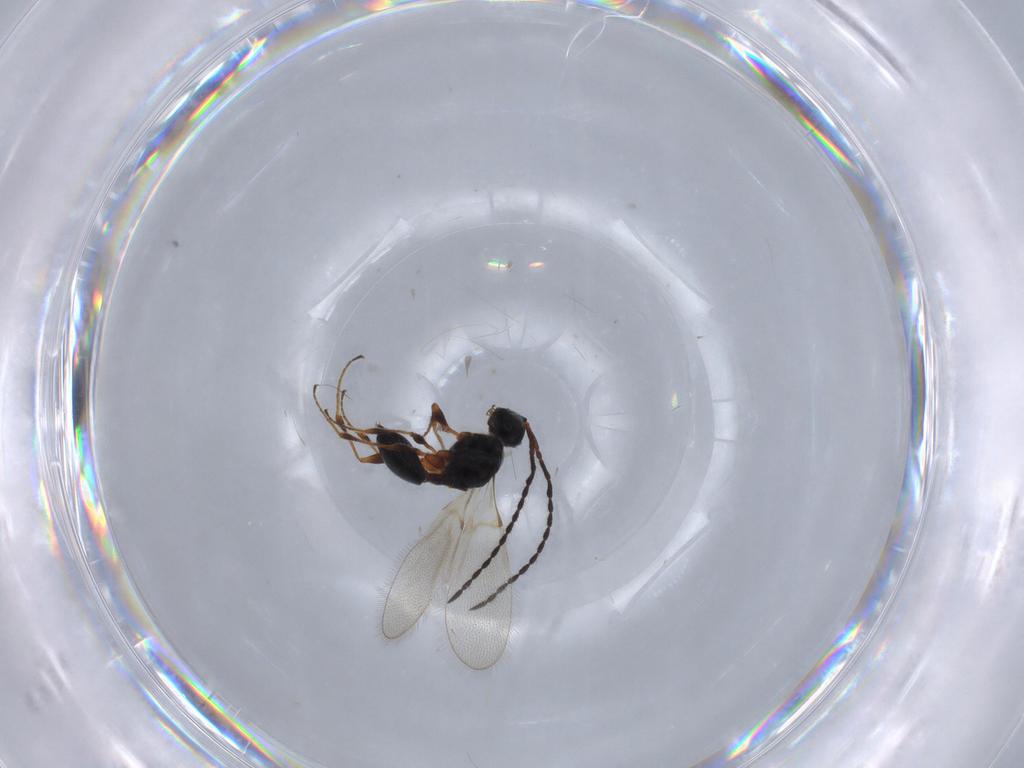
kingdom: Animalia
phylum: Arthropoda
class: Insecta
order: Hymenoptera
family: Diapriidae
